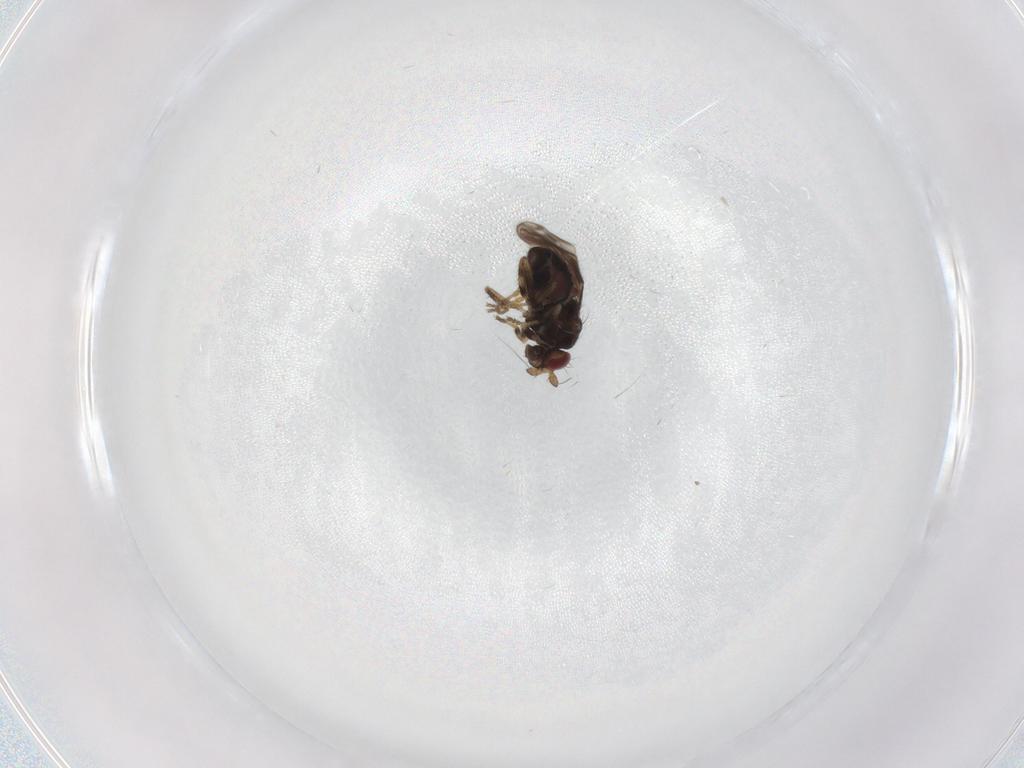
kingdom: Animalia
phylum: Arthropoda
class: Insecta
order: Diptera
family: Sphaeroceridae
